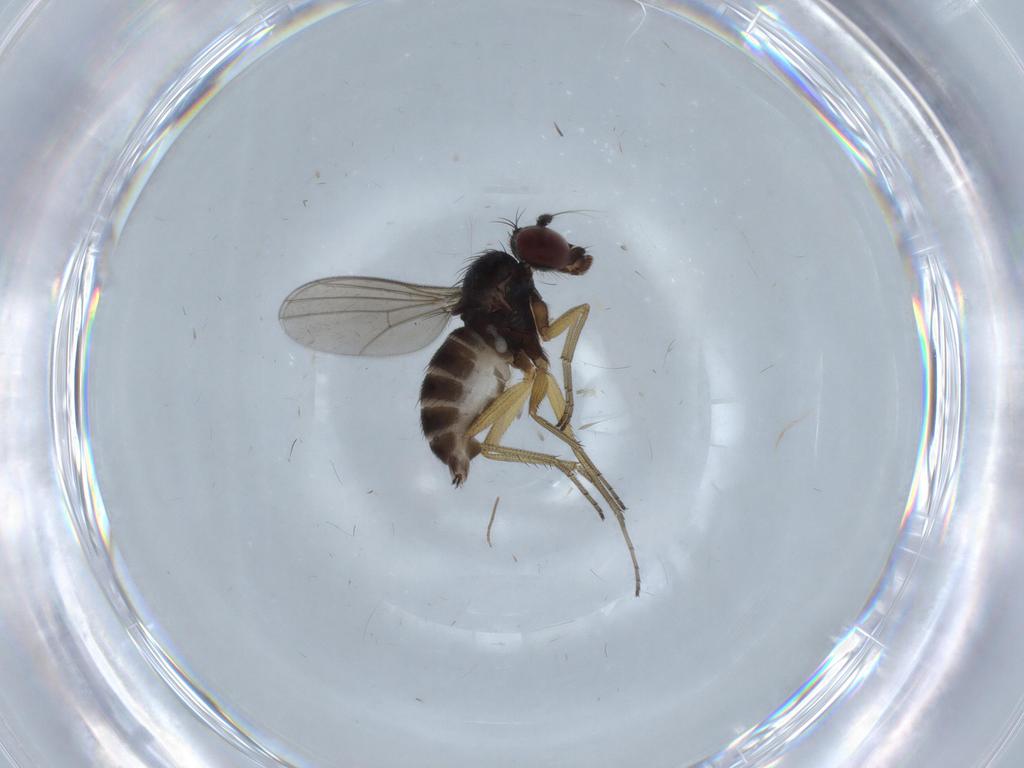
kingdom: Animalia
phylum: Arthropoda
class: Insecta
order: Diptera
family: Dolichopodidae
